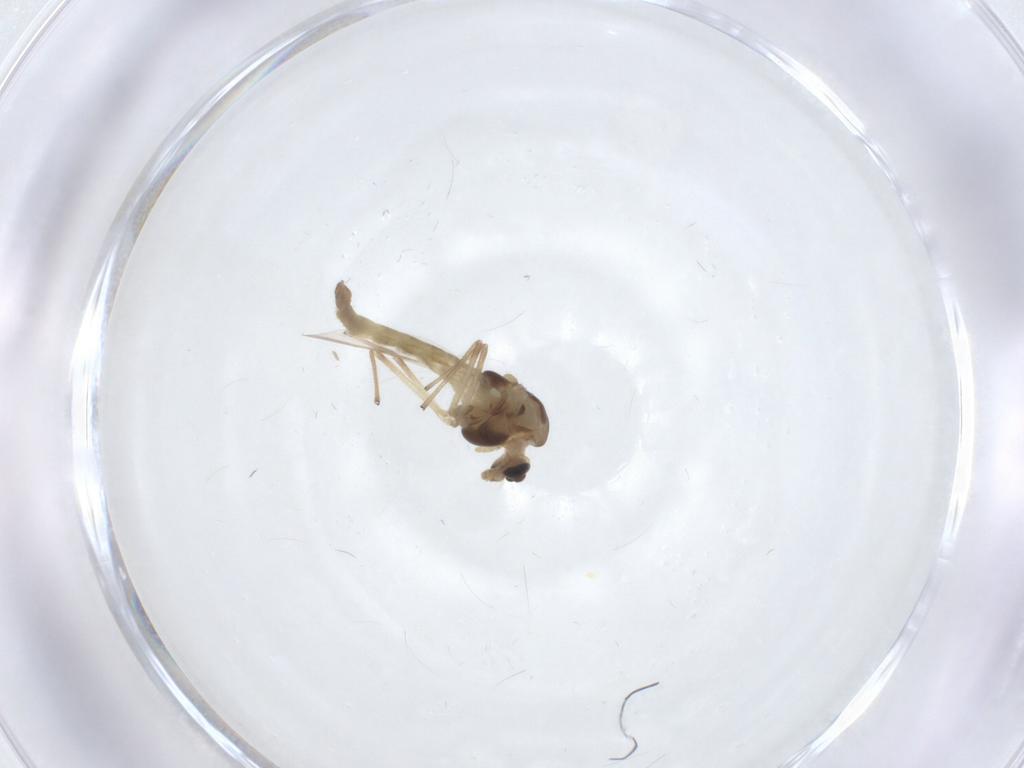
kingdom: Animalia
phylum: Arthropoda
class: Insecta
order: Diptera
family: Chironomidae
